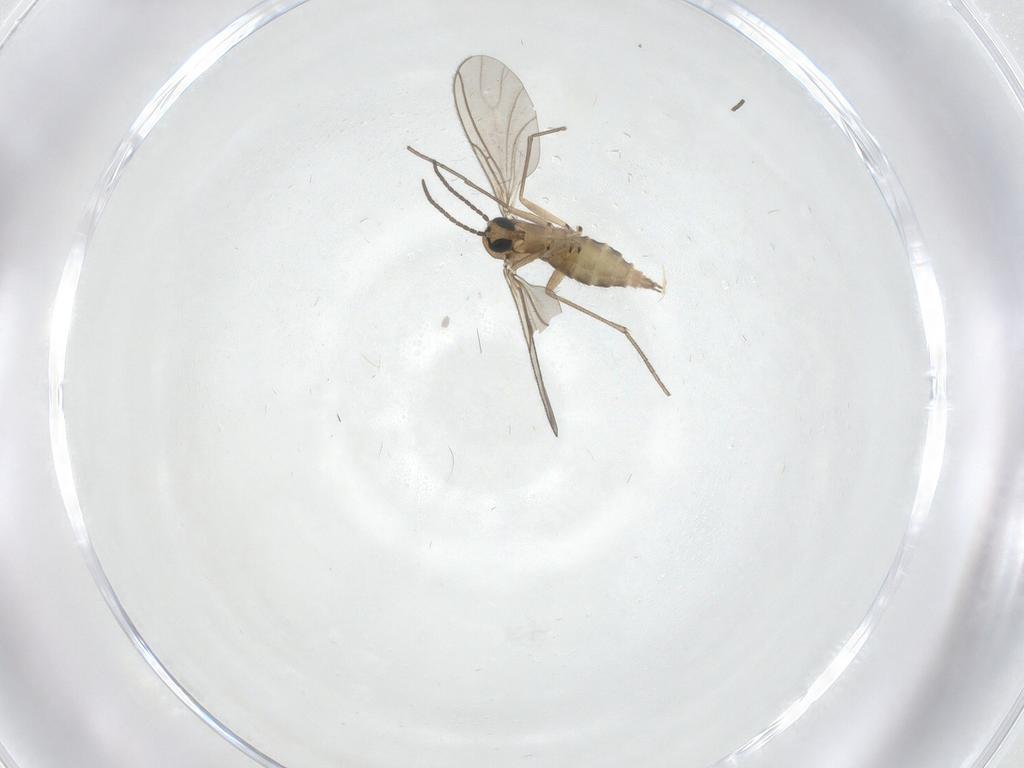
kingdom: Animalia
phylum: Arthropoda
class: Insecta
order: Diptera
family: Sciaridae
